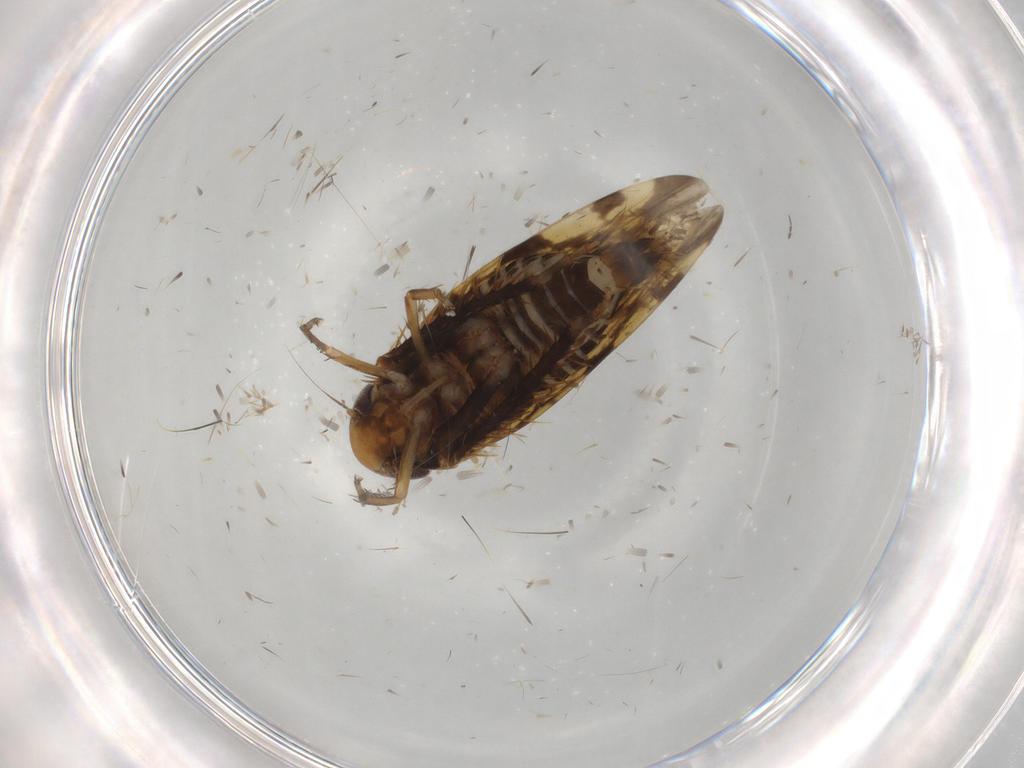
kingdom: Animalia
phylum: Arthropoda
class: Insecta
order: Hemiptera
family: Cicadellidae
